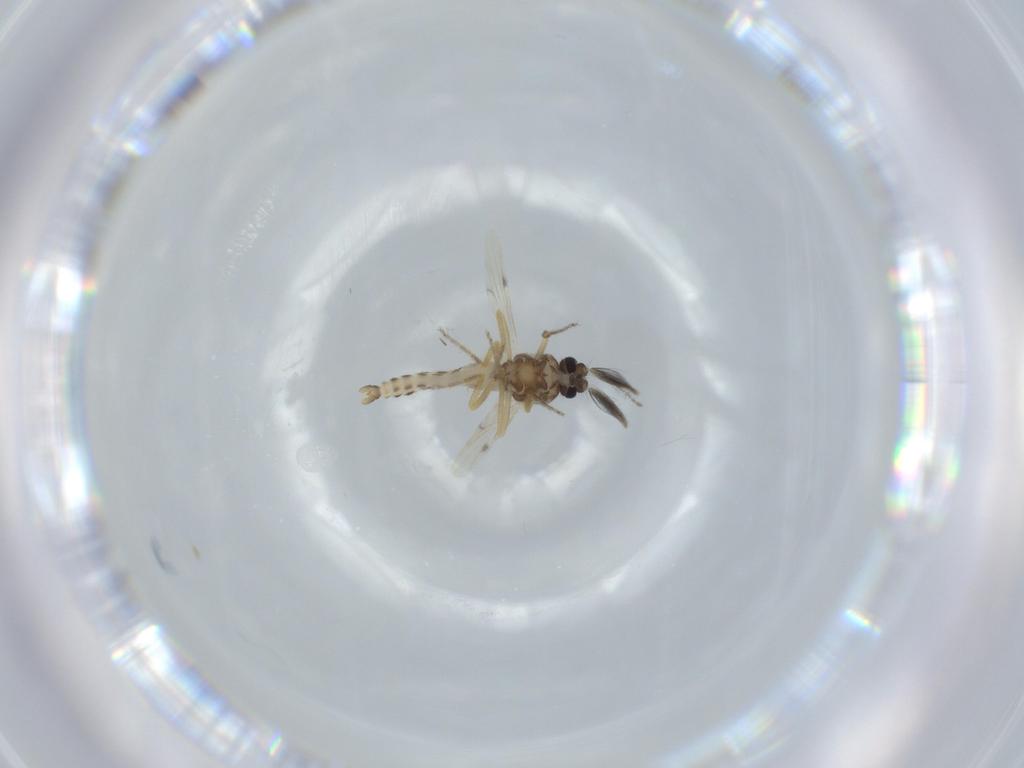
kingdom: Animalia
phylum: Arthropoda
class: Insecta
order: Diptera
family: Ceratopogonidae
